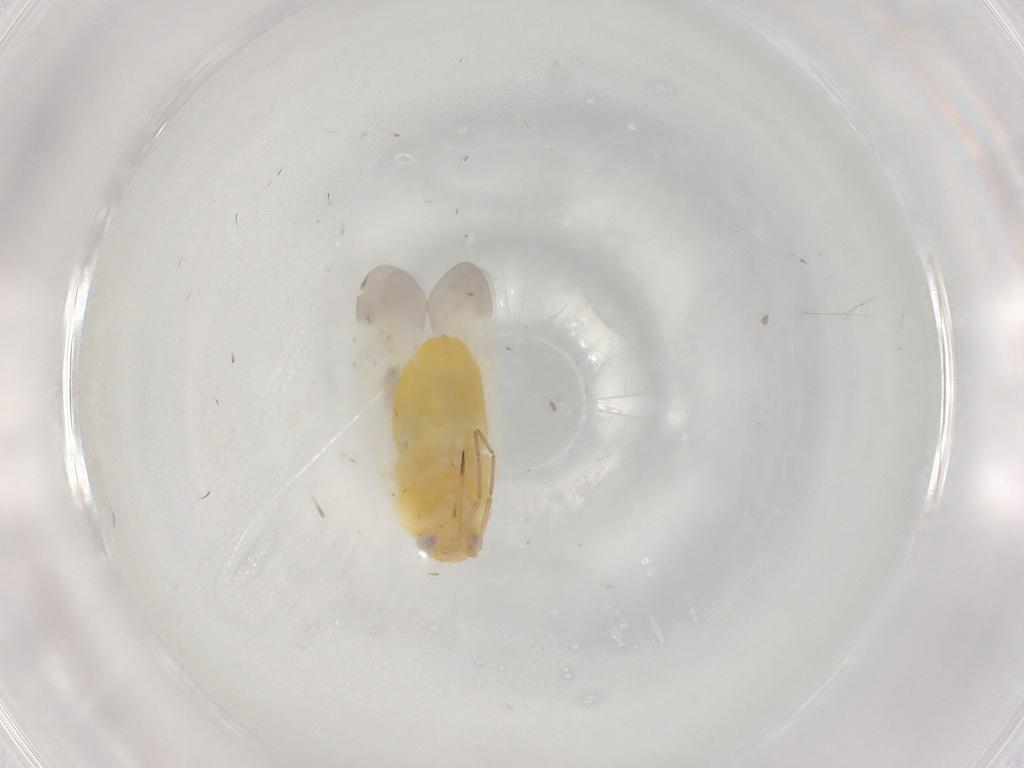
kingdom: Animalia
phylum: Arthropoda
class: Insecta
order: Hemiptera
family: Miridae
